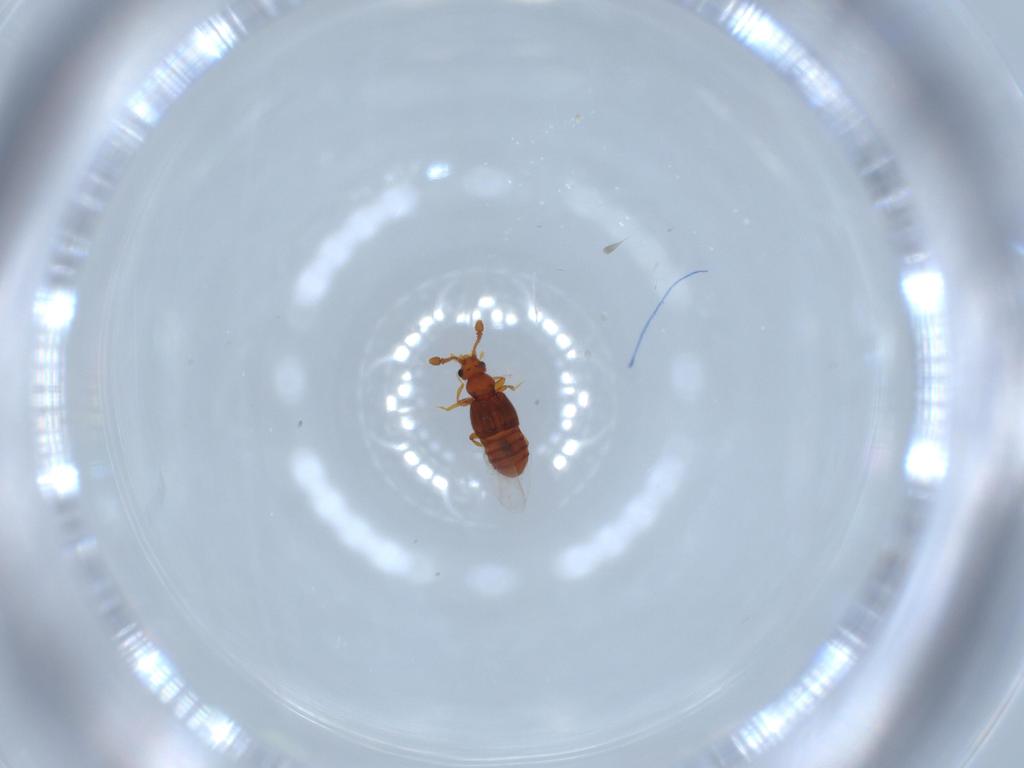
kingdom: Animalia
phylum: Arthropoda
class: Insecta
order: Coleoptera
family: Staphylinidae
